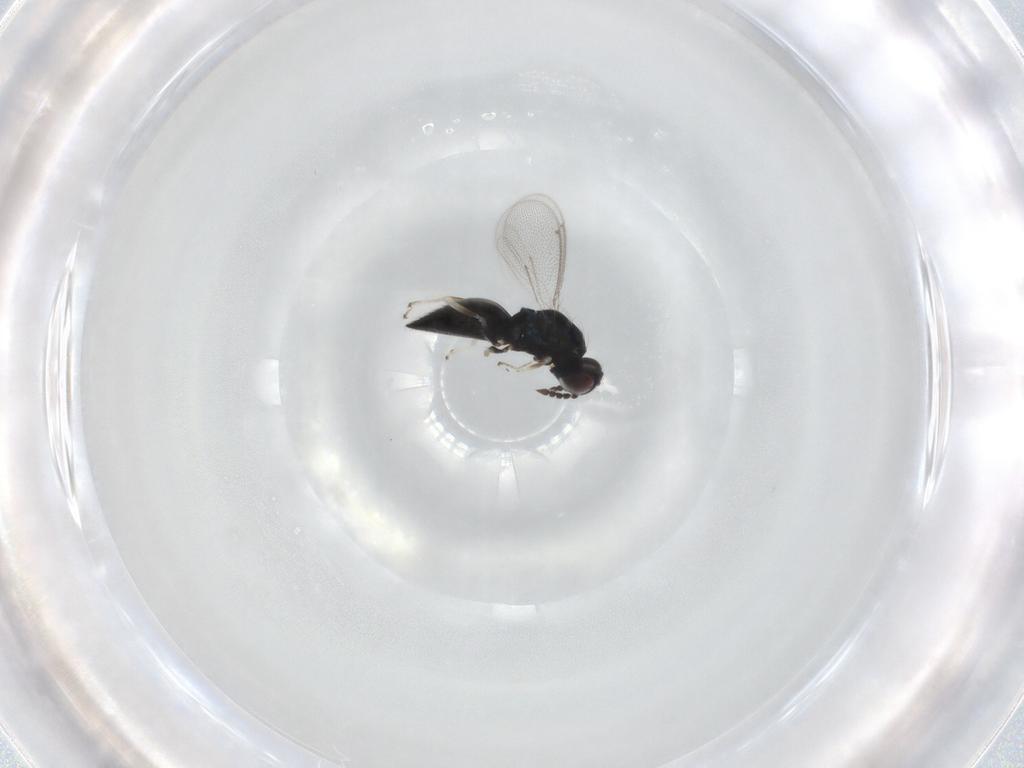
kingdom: Animalia
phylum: Arthropoda
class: Insecta
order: Hymenoptera
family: Eulophidae
